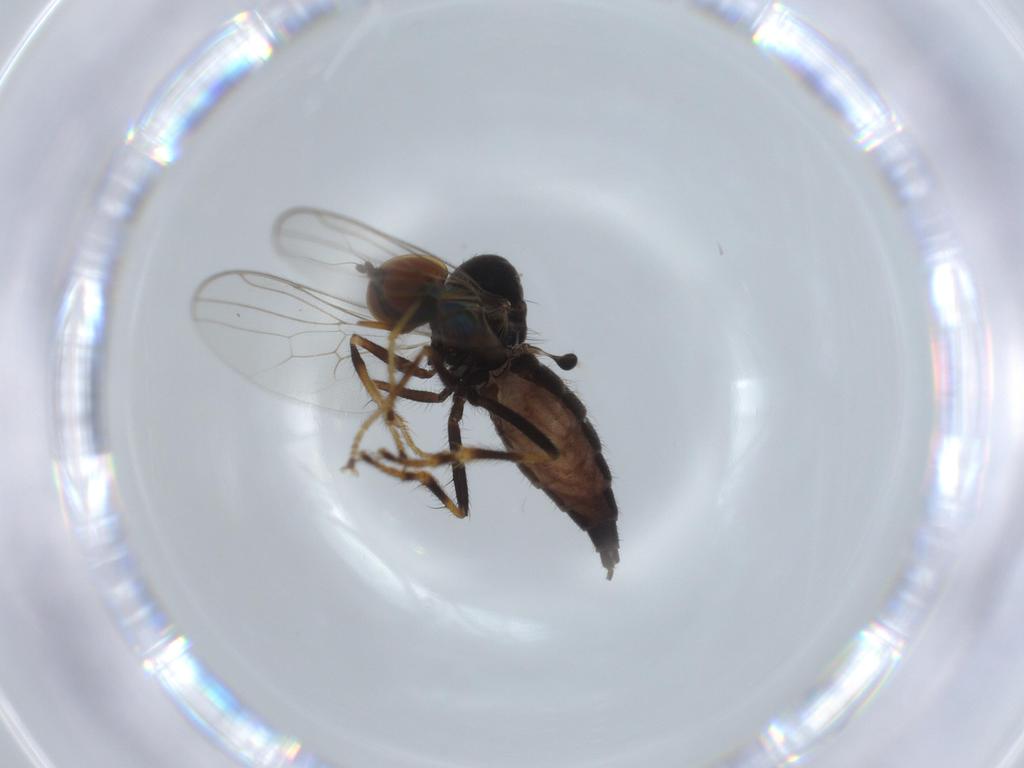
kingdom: Animalia
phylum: Arthropoda
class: Insecta
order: Diptera
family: Hybotidae
